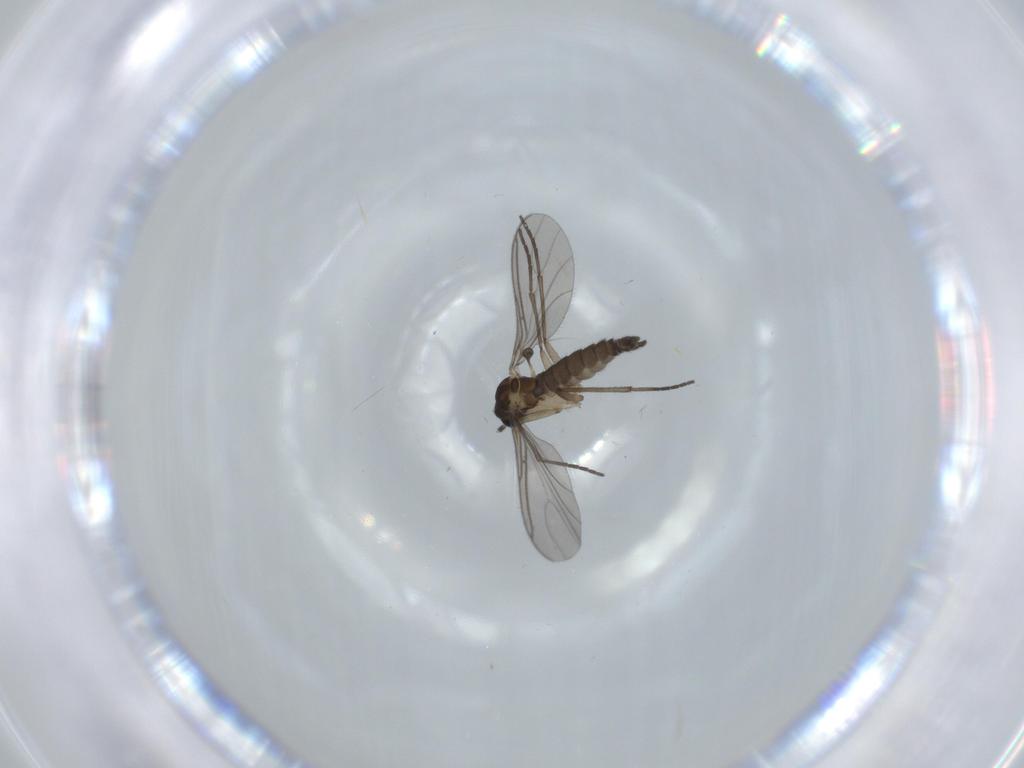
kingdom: Animalia
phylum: Arthropoda
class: Insecta
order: Diptera
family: Sciaridae
